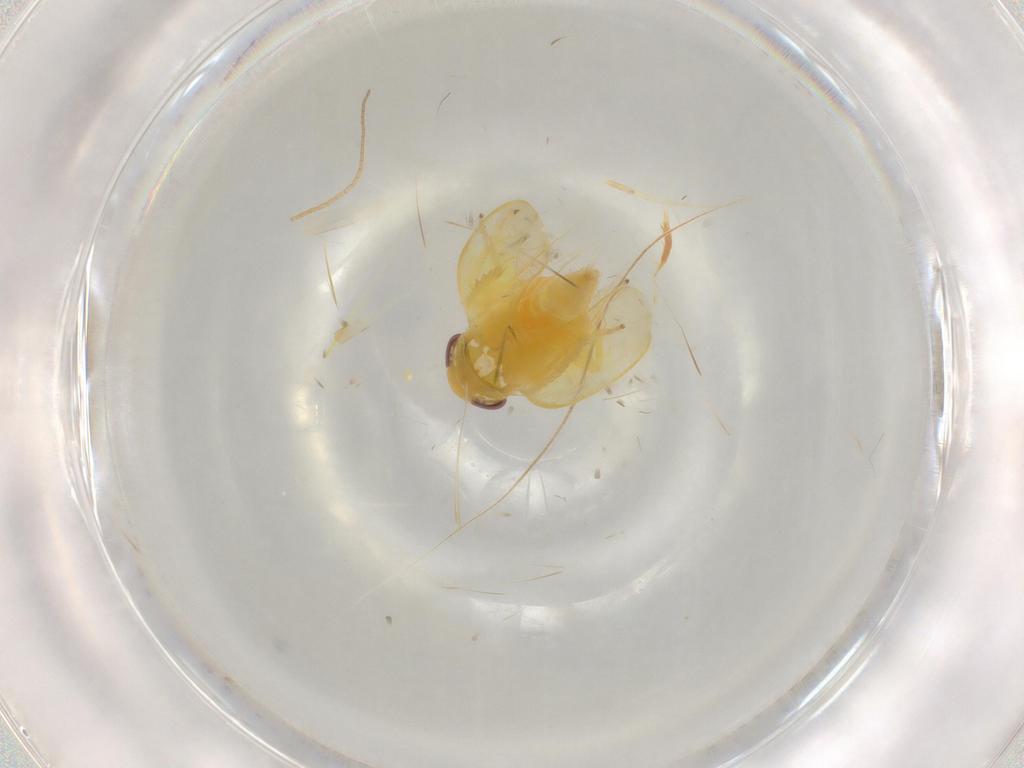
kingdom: Animalia
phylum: Arthropoda
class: Insecta
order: Hemiptera
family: Cicadellidae
